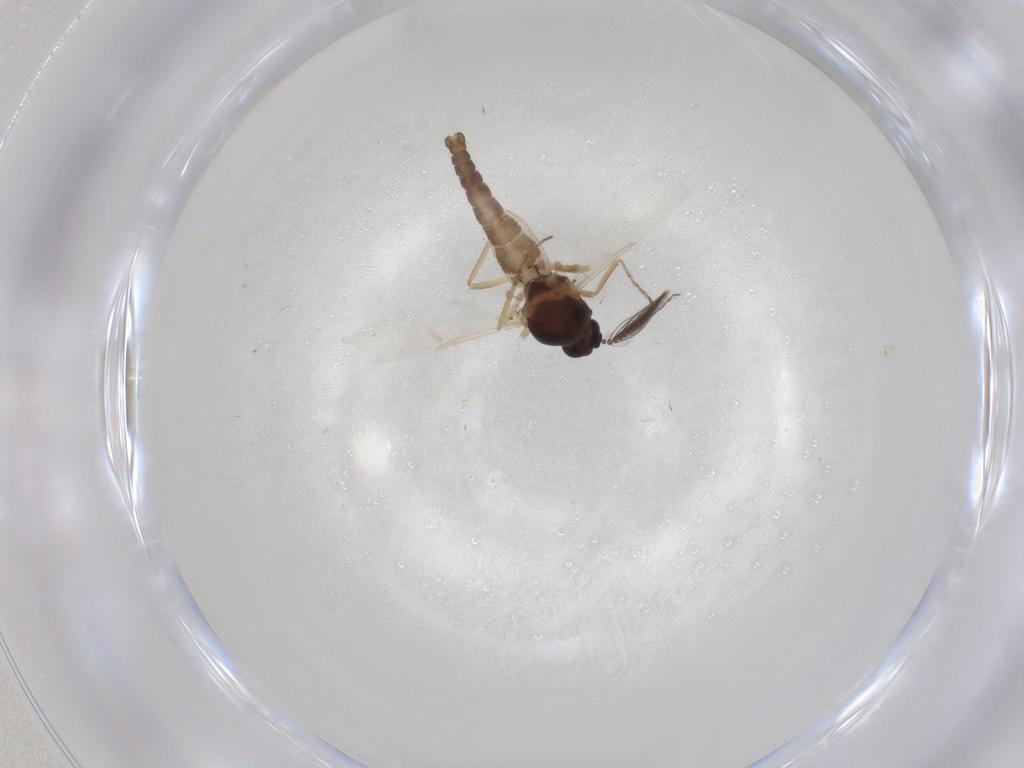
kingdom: Animalia
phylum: Arthropoda
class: Insecta
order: Diptera
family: Ceratopogonidae
